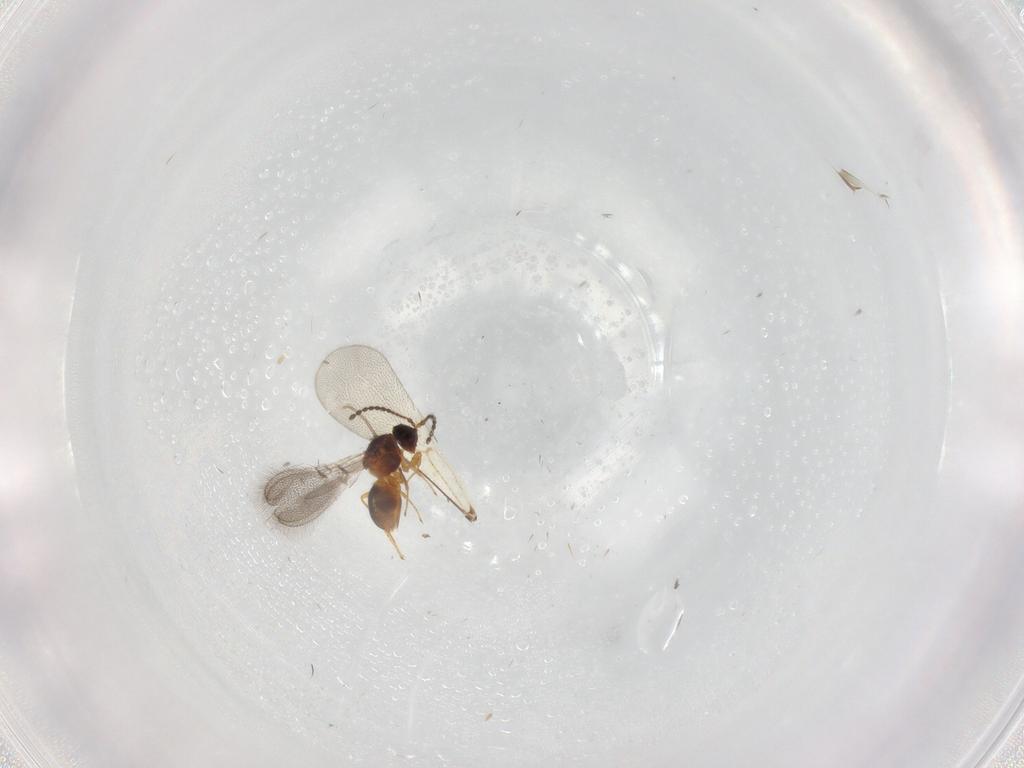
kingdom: Animalia
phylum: Arthropoda
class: Insecta
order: Hymenoptera
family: Bethylidae
